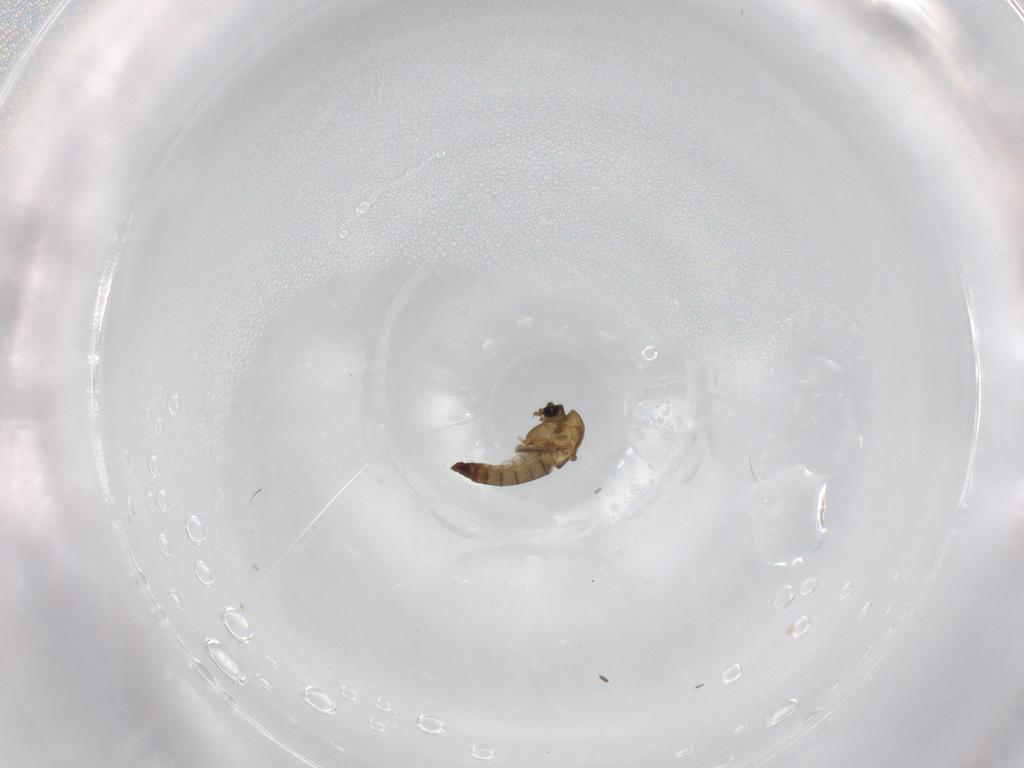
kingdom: Animalia
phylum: Arthropoda
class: Insecta
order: Diptera
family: Chironomidae
